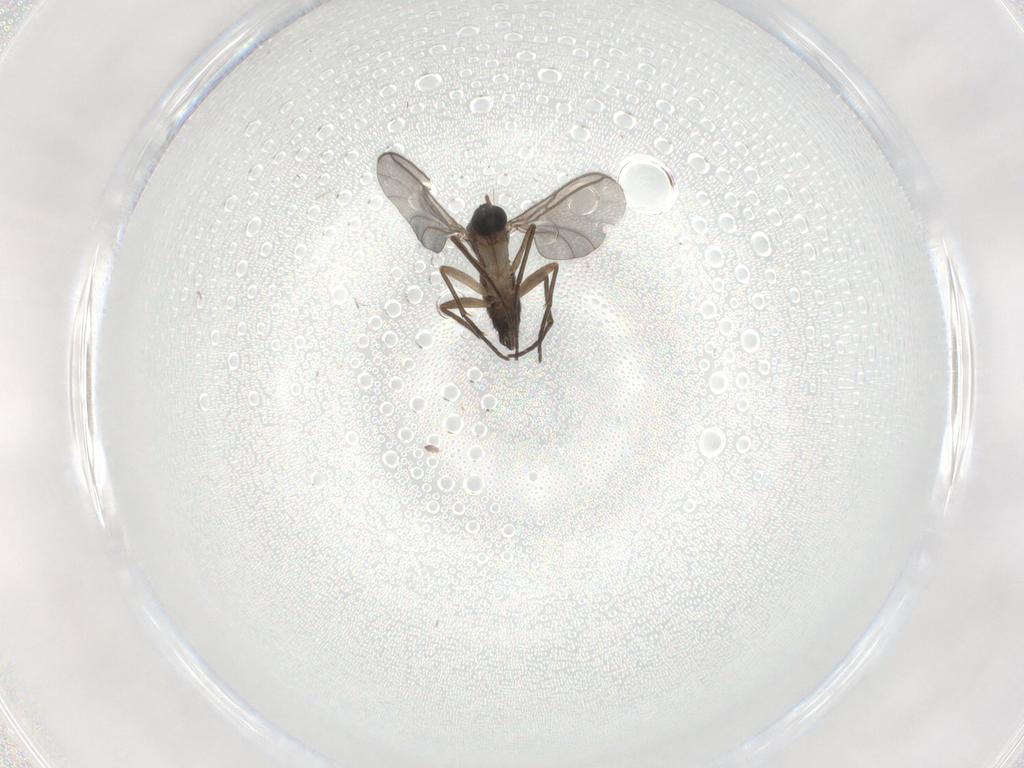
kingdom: Animalia
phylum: Arthropoda
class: Insecta
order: Diptera
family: Sciaridae
